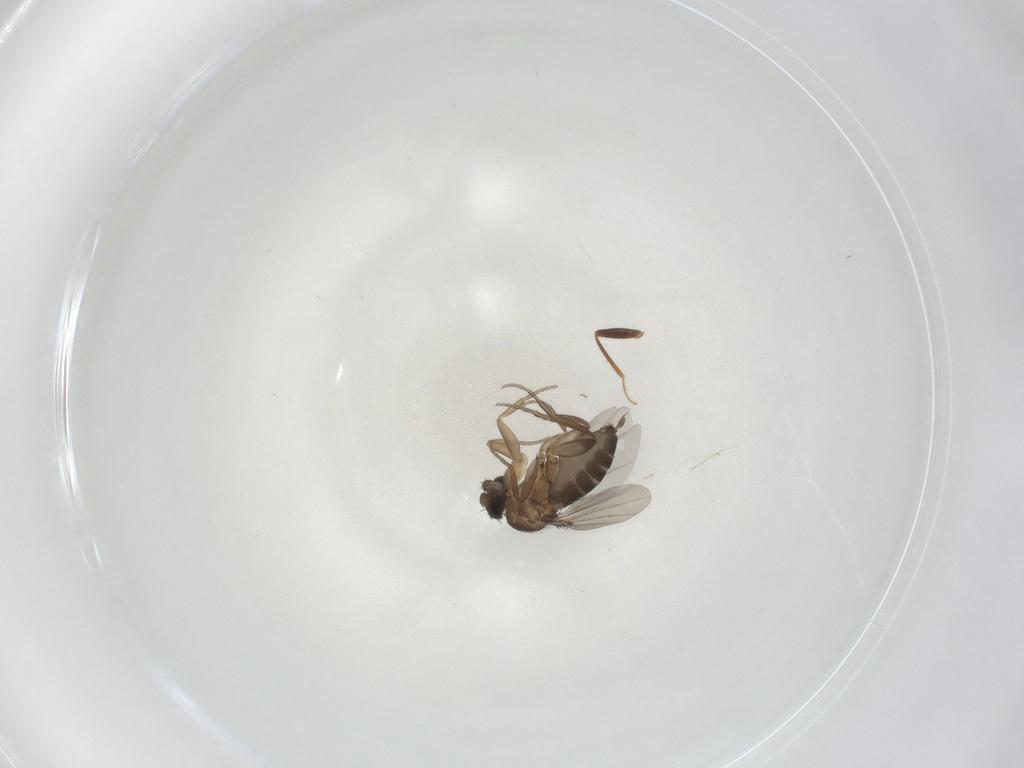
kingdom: Animalia
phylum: Arthropoda
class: Insecta
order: Diptera
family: Phoridae
